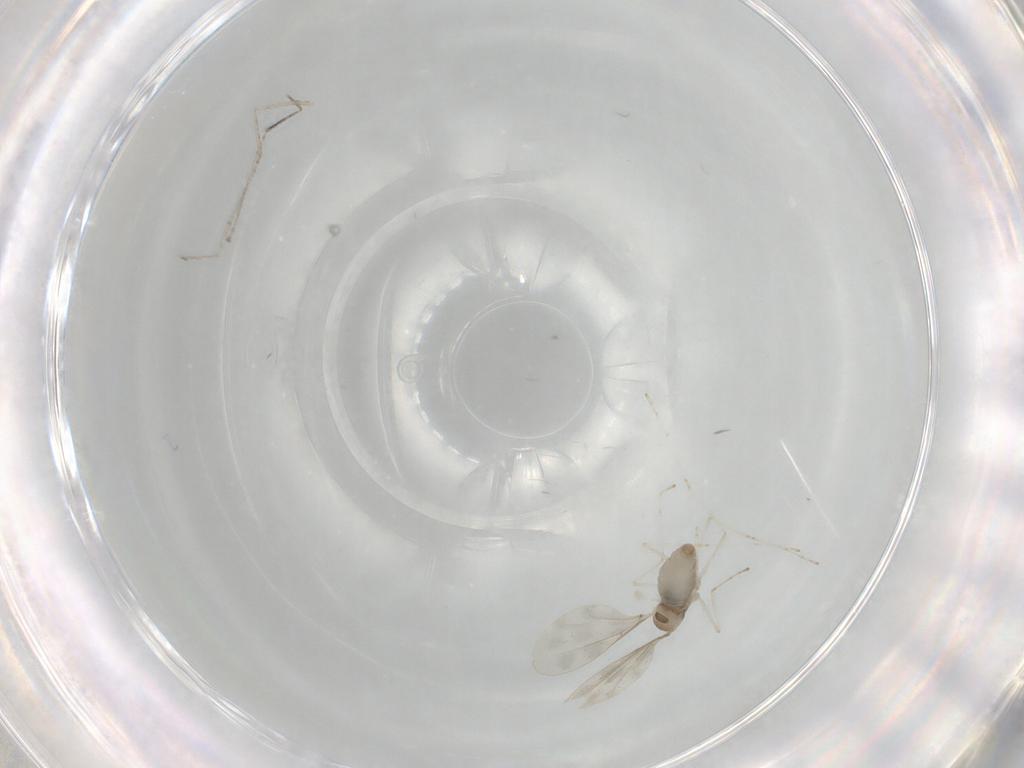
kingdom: Animalia
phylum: Arthropoda
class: Insecta
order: Diptera
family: Cecidomyiidae
